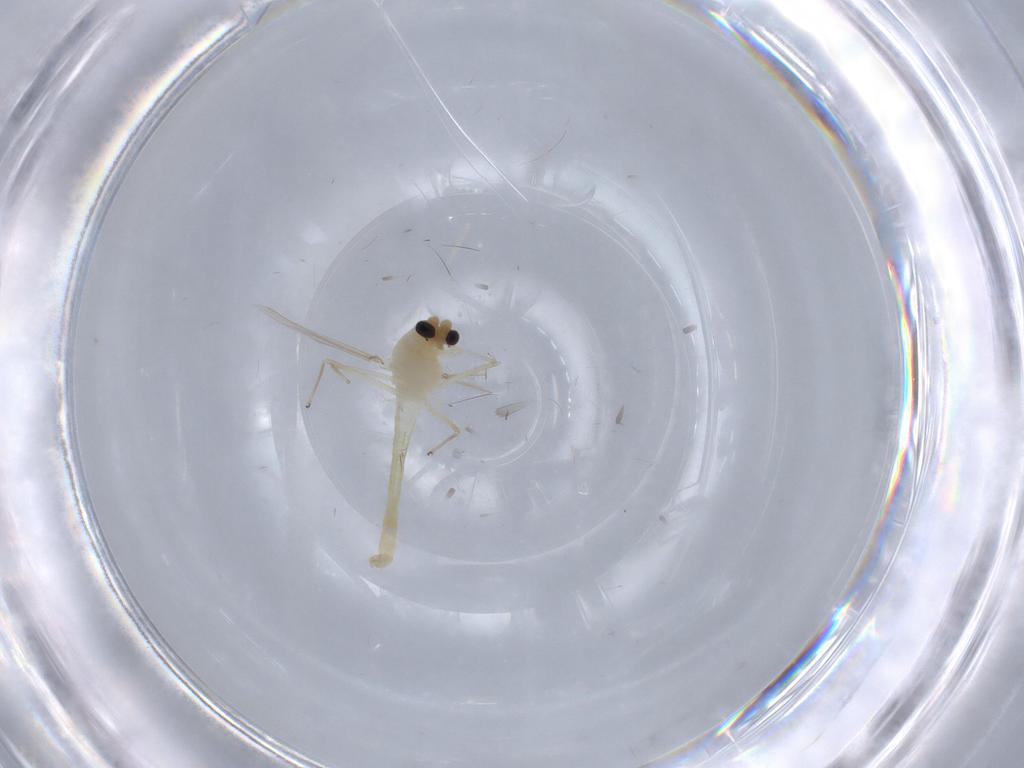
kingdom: Animalia
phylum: Arthropoda
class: Insecta
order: Diptera
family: Chironomidae
